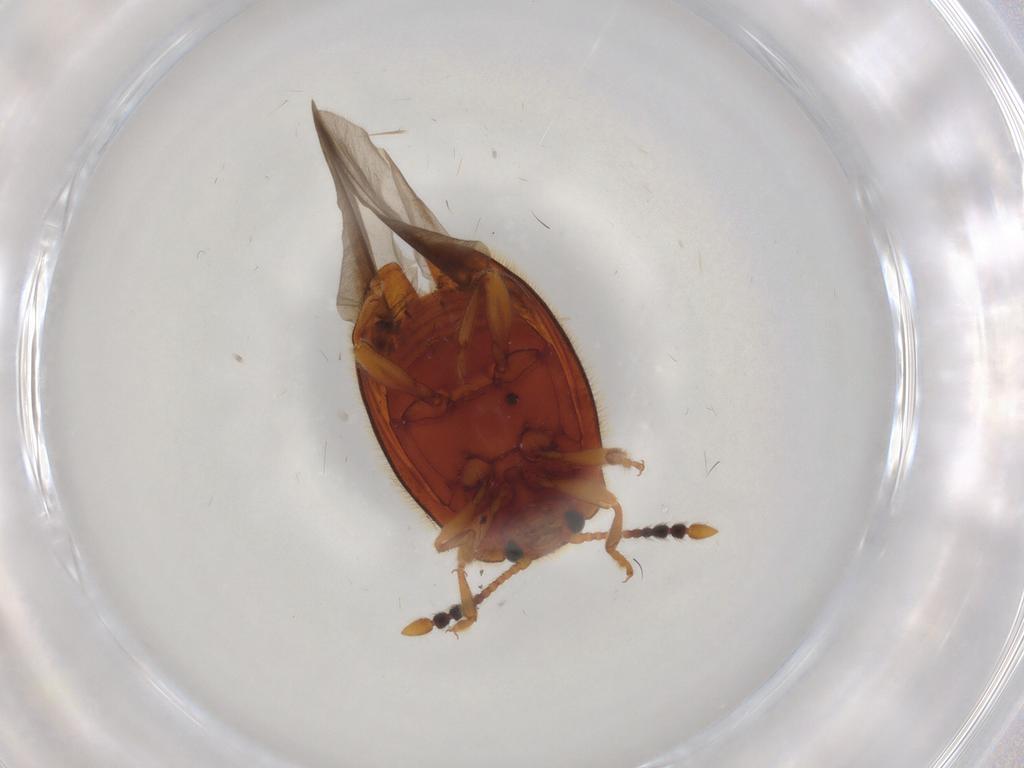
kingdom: Animalia
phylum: Arthropoda
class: Insecta
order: Coleoptera
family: Endomychidae
